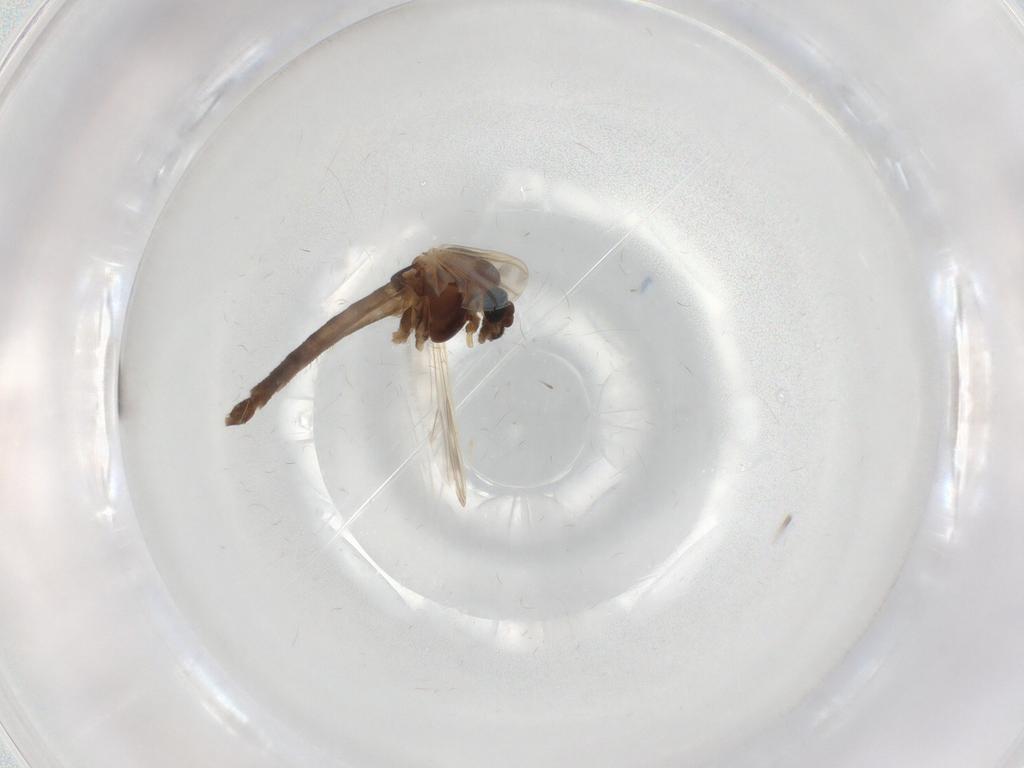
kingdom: Animalia
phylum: Arthropoda
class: Insecta
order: Diptera
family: Chironomidae
